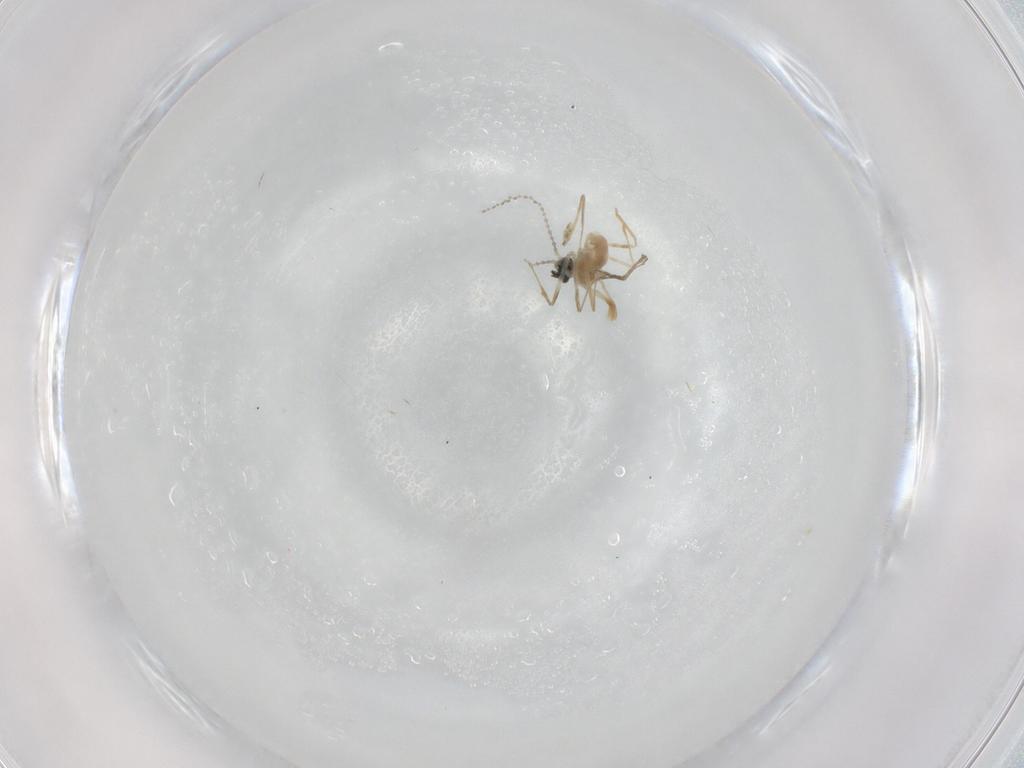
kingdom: Animalia
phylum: Arthropoda
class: Insecta
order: Diptera
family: Cecidomyiidae
